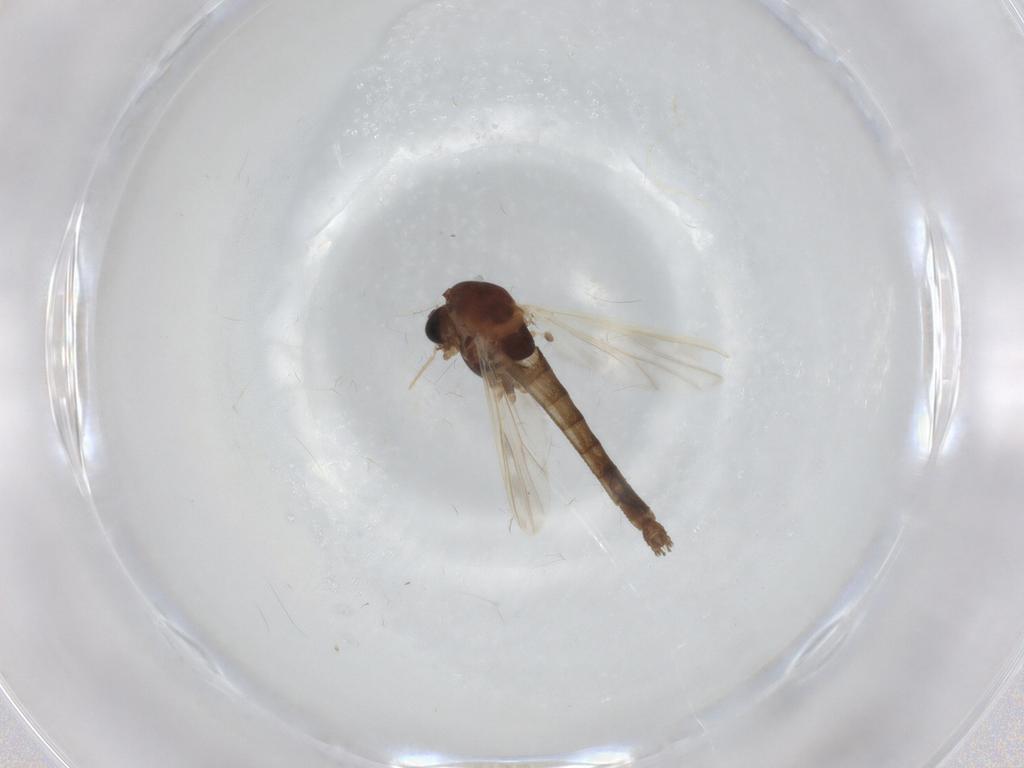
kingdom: Animalia
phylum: Arthropoda
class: Insecta
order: Diptera
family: Chironomidae
